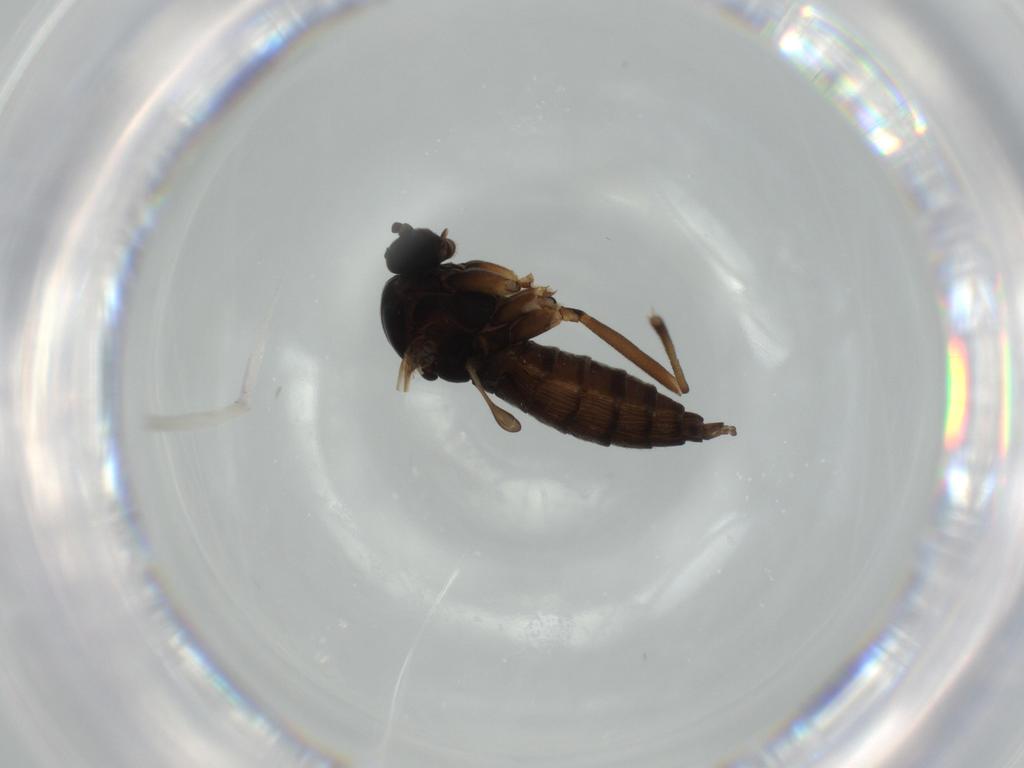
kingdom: Animalia
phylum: Arthropoda
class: Insecta
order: Diptera
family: Sciaridae
